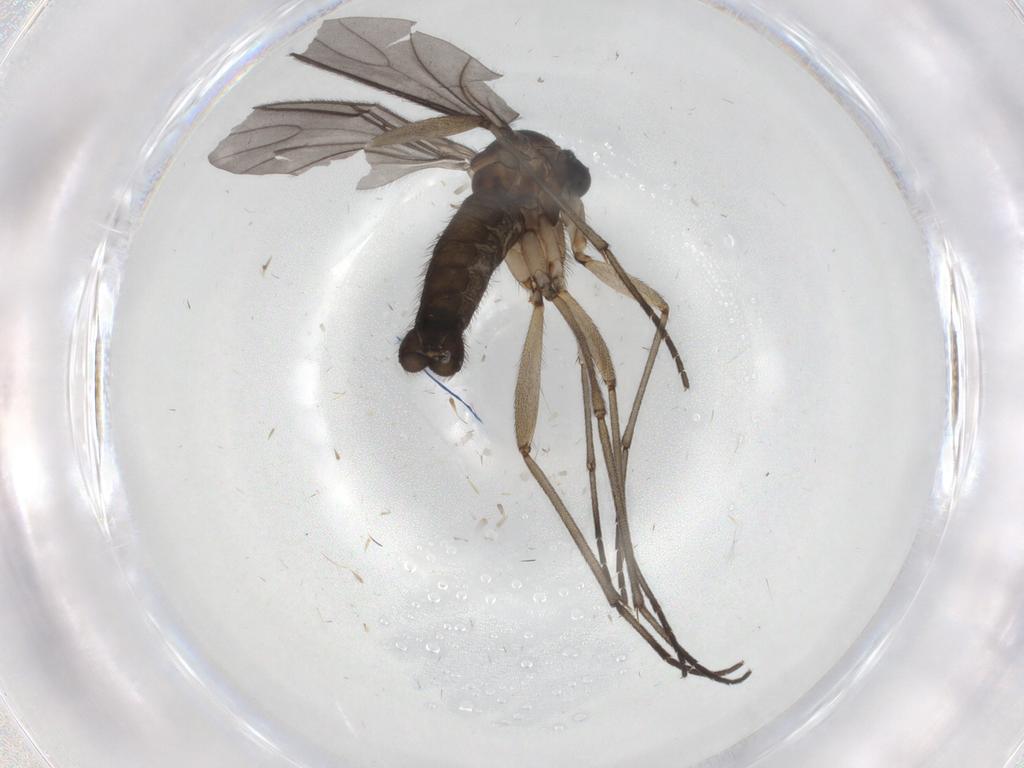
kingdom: Animalia
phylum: Arthropoda
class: Insecta
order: Diptera
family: Sciaridae
